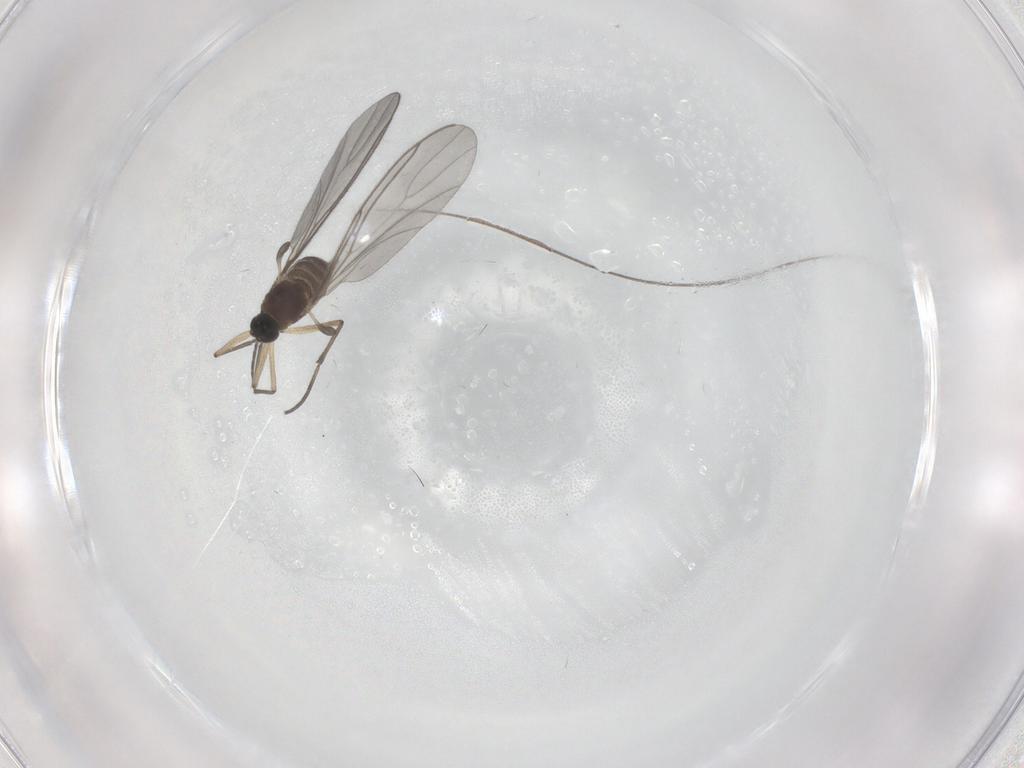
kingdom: Animalia
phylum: Arthropoda
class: Insecta
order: Diptera
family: Sciaridae
